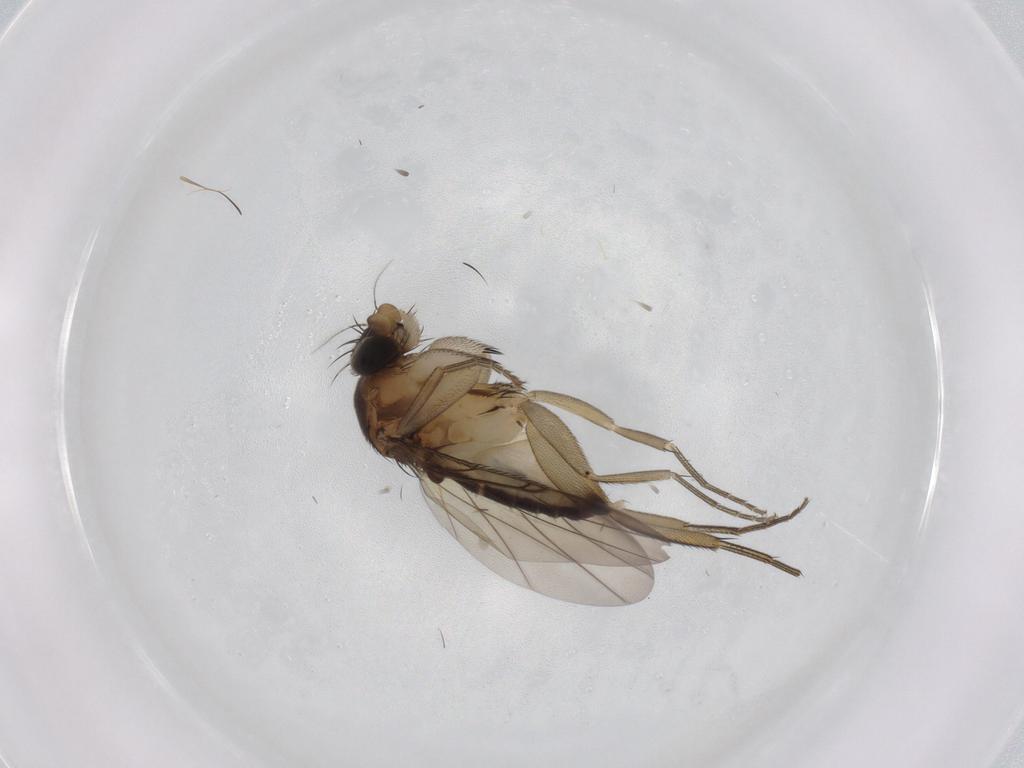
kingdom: Animalia
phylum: Arthropoda
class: Insecta
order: Diptera
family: Phoridae
